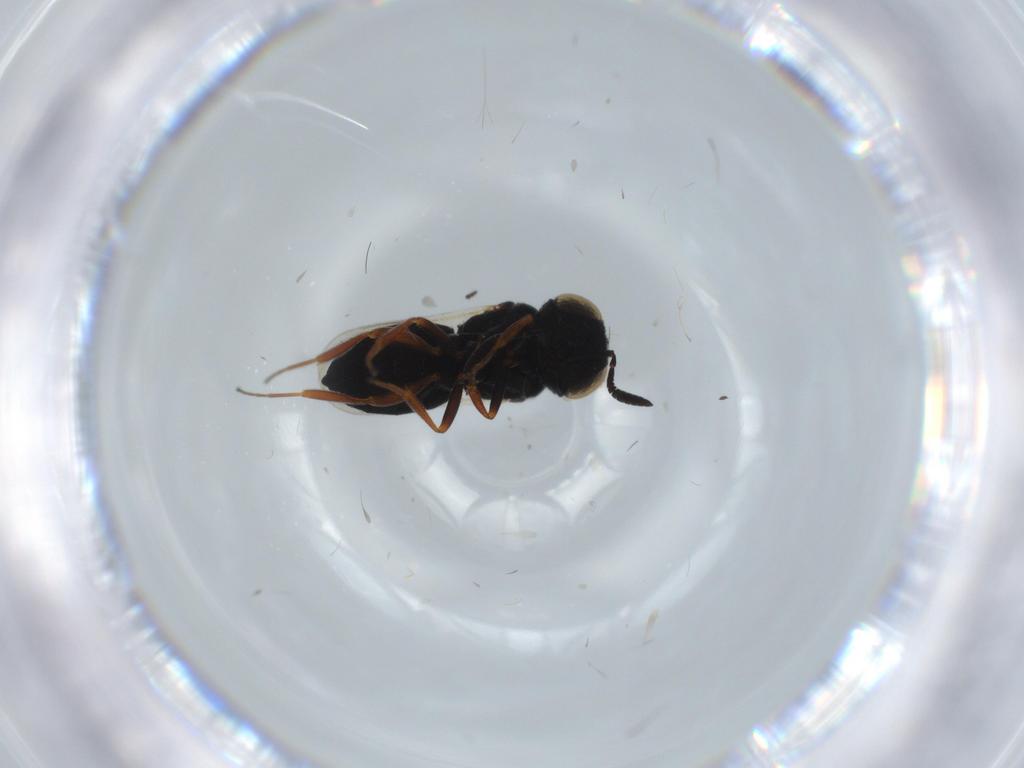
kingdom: Animalia
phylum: Arthropoda
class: Insecta
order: Hymenoptera
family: Scelionidae
